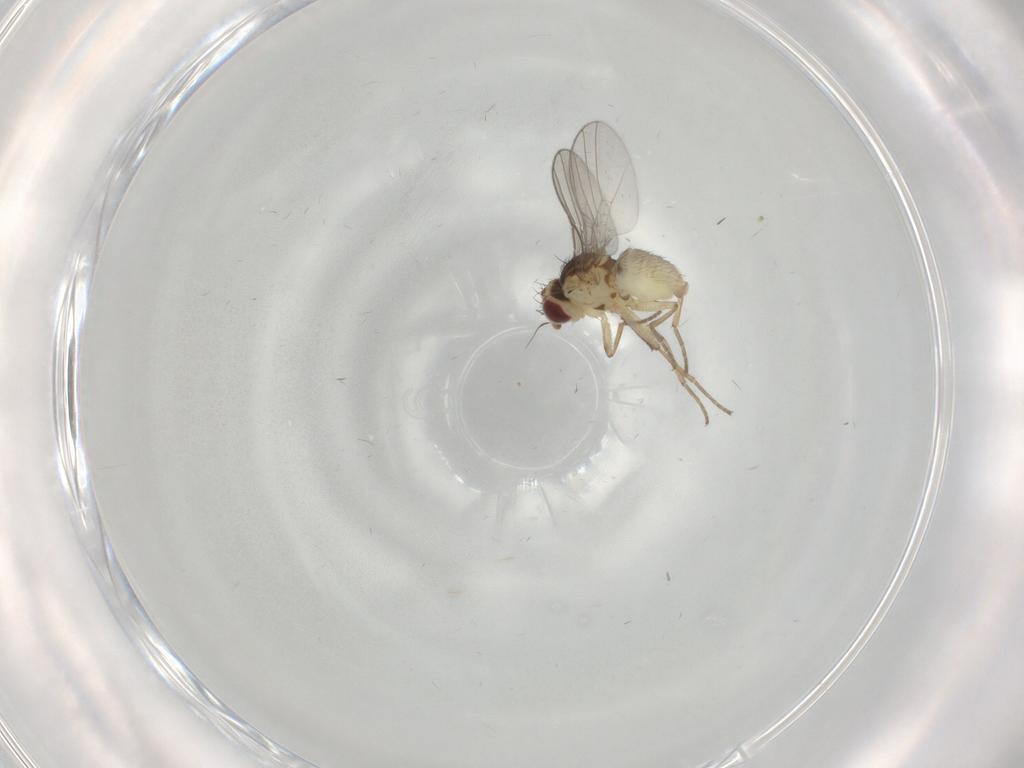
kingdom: Animalia
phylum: Arthropoda
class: Insecta
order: Diptera
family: Agromyzidae
